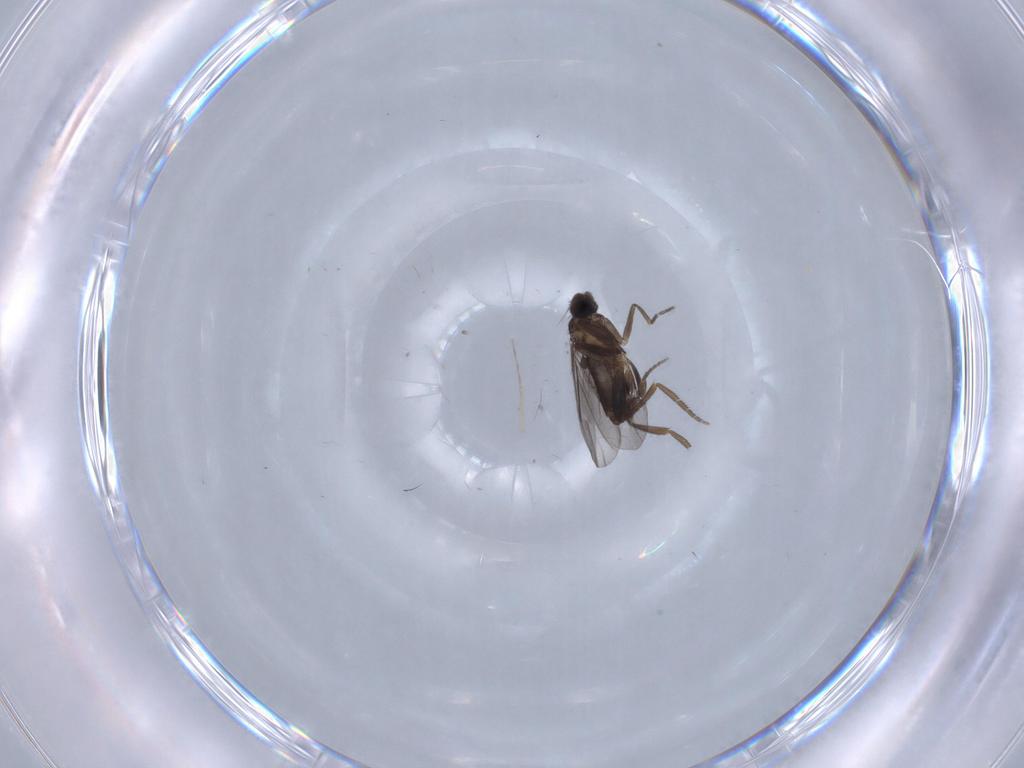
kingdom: Animalia
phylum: Arthropoda
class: Insecta
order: Diptera
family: Phoridae
